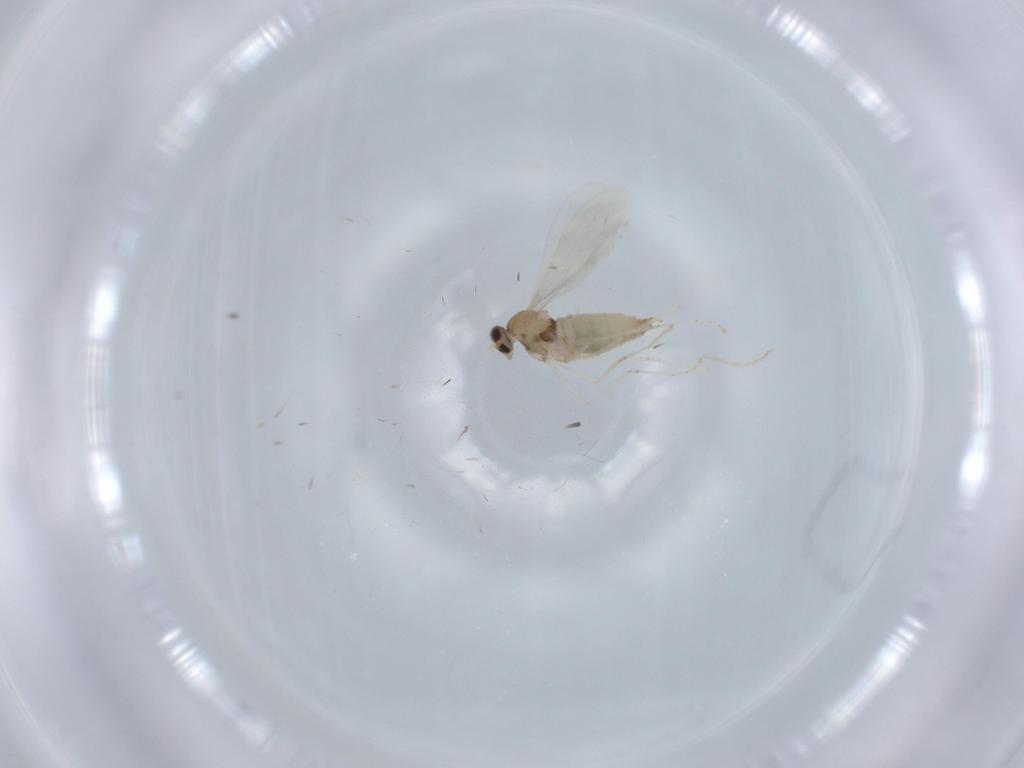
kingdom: Animalia
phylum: Arthropoda
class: Insecta
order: Diptera
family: Cecidomyiidae
